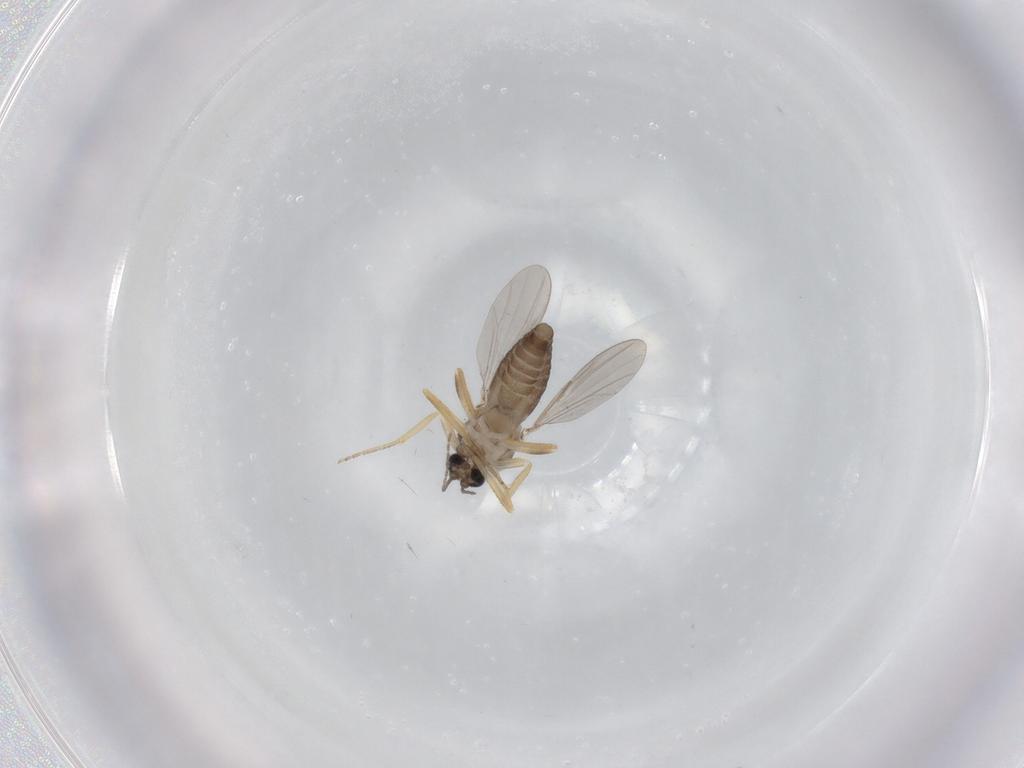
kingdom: Animalia
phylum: Arthropoda
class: Insecta
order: Diptera
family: Ceratopogonidae
